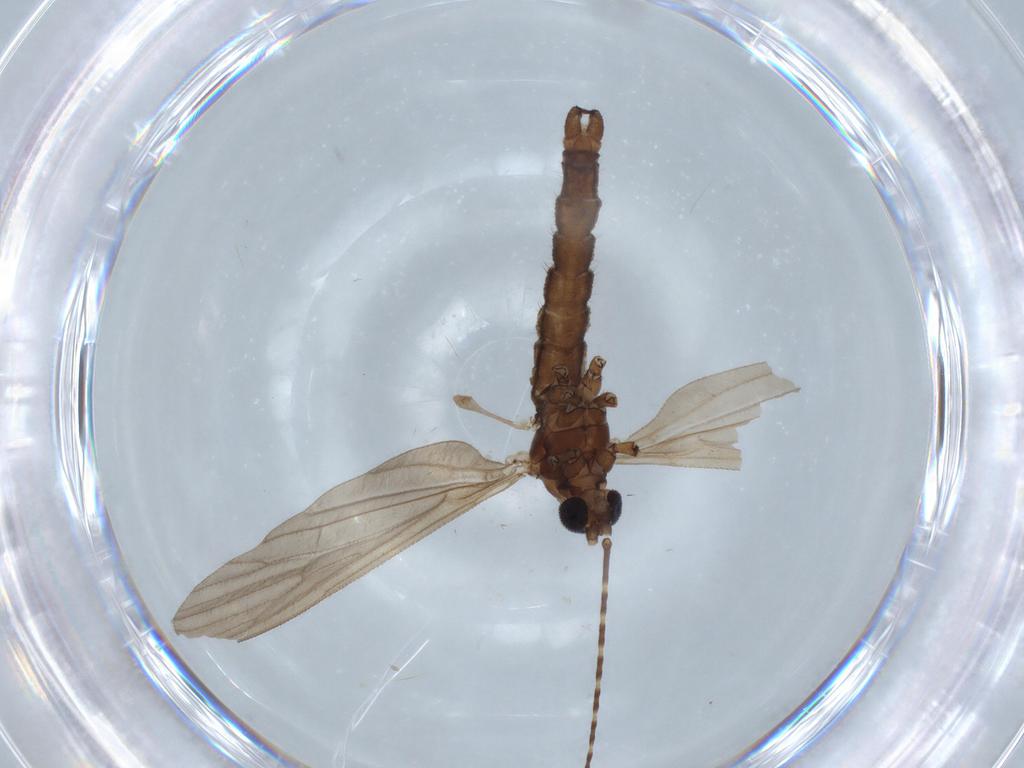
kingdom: Animalia
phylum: Arthropoda
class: Insecta
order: Diptera
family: Limoniidae
